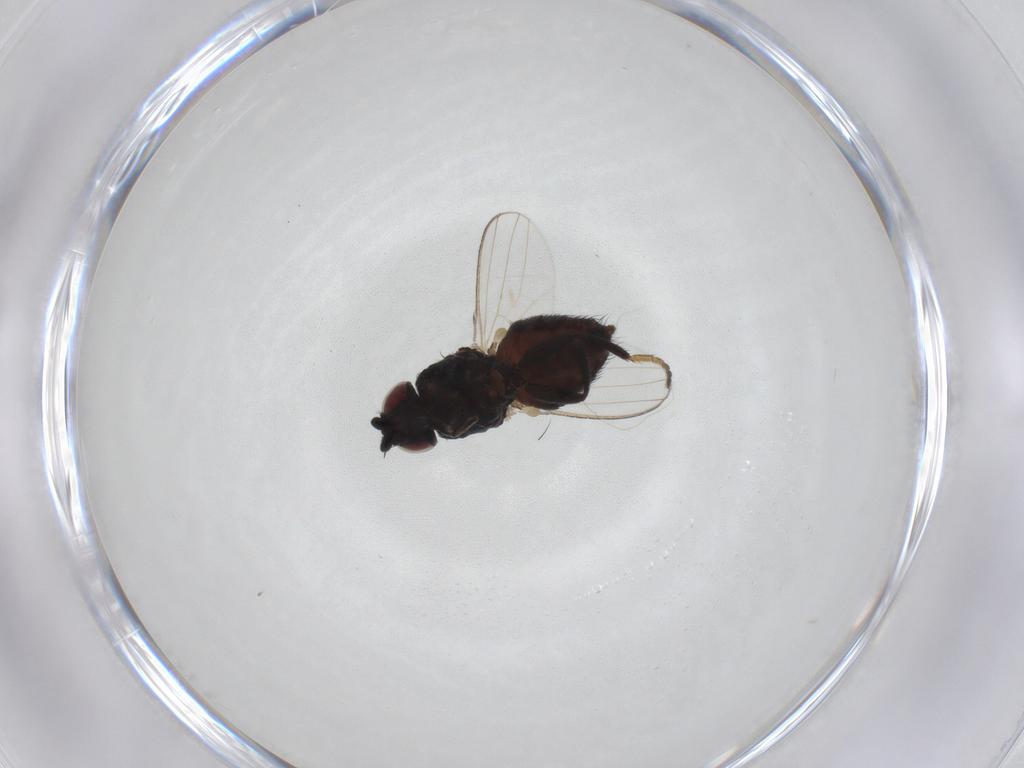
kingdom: Animalia
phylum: Arthropoda
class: Insecta
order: Diptera
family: Milichiidae
